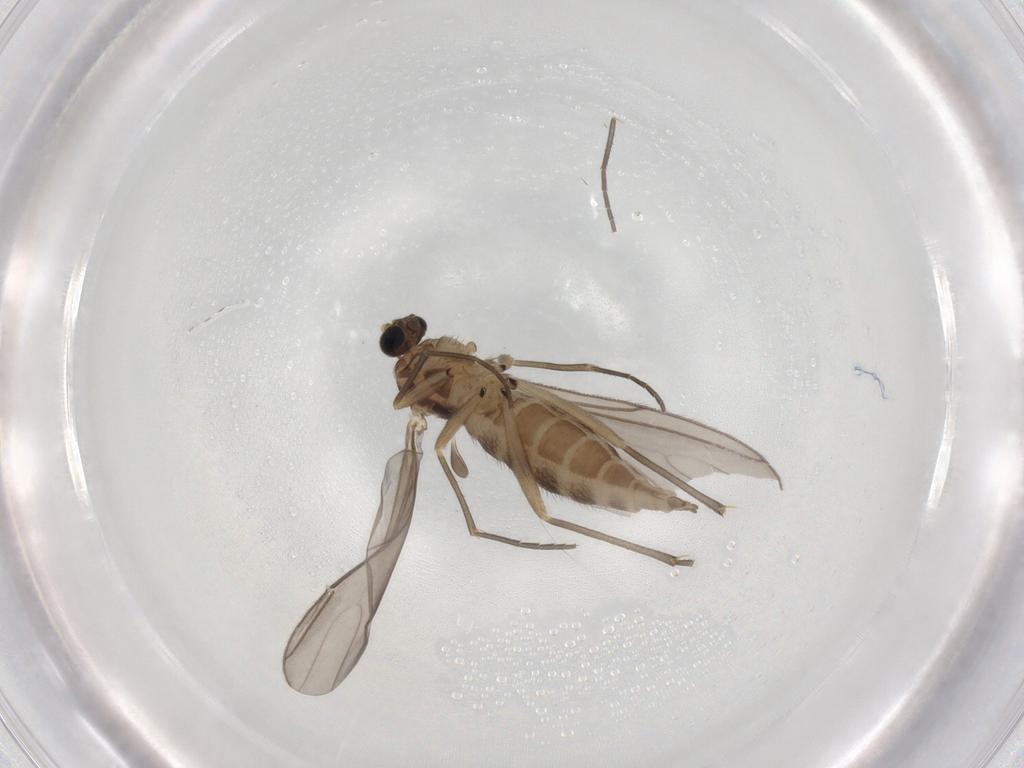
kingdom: Animalia
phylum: Arthropoda
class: Insecta
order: Diptera
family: Sciaridae
